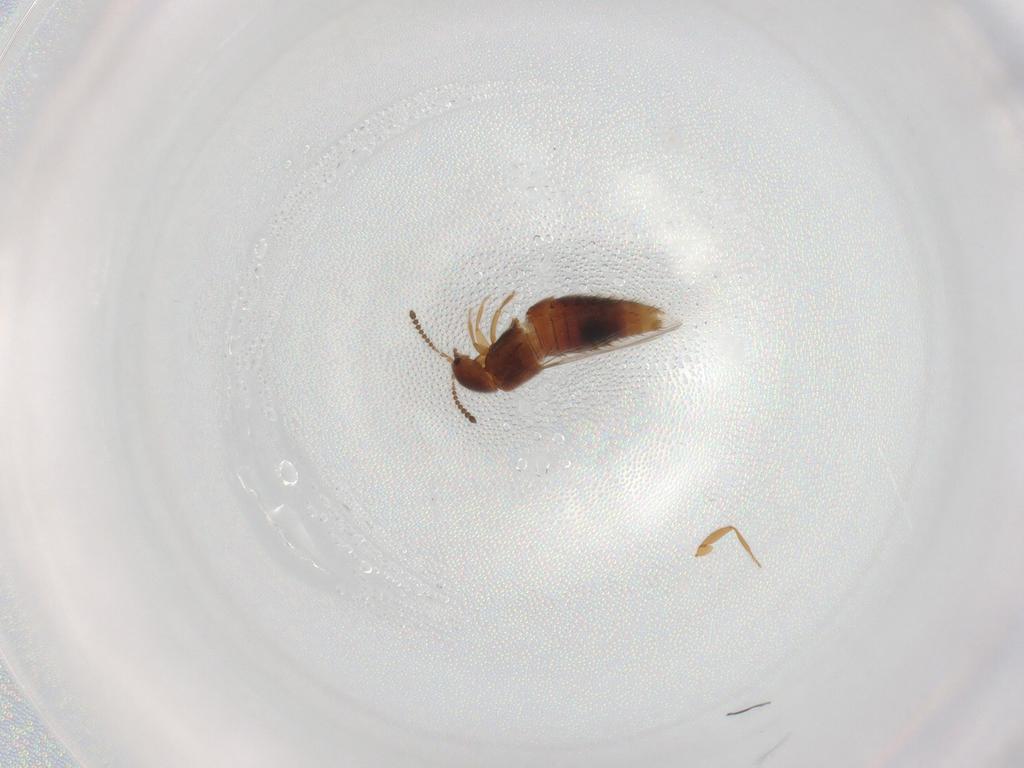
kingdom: Animalia
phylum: Arthropoda
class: Insecta
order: Coleoptera
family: Staphylinidae
